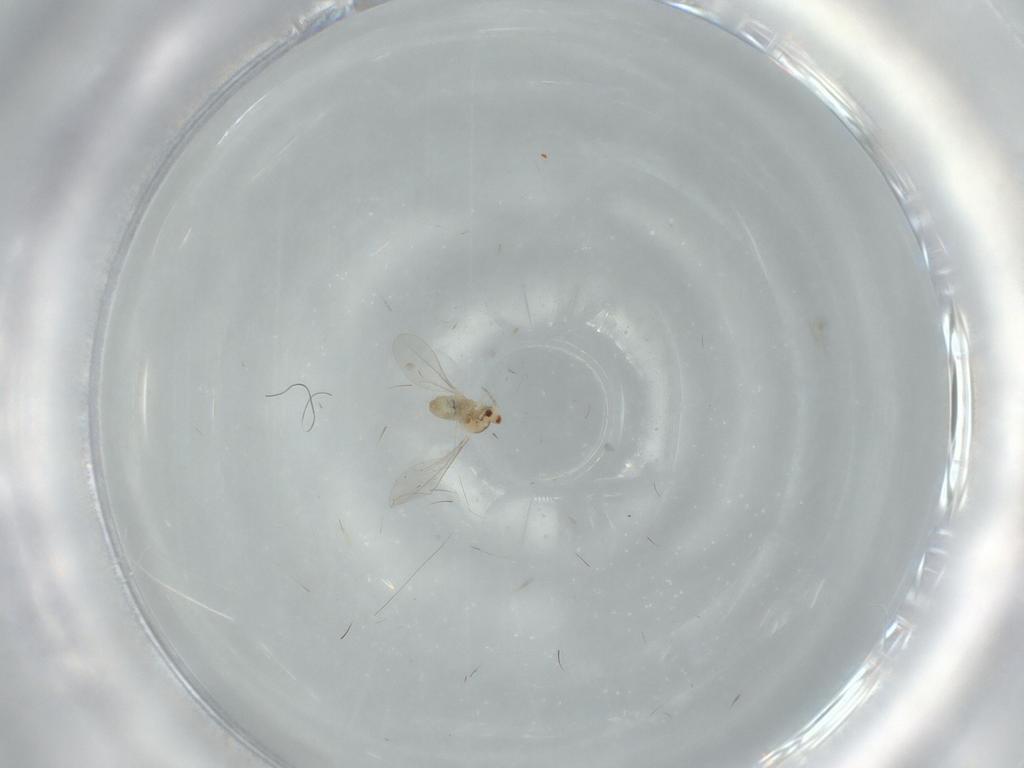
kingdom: Animalia
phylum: Arthropoda
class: Insecta
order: Diptera
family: Cecidomyiidae
